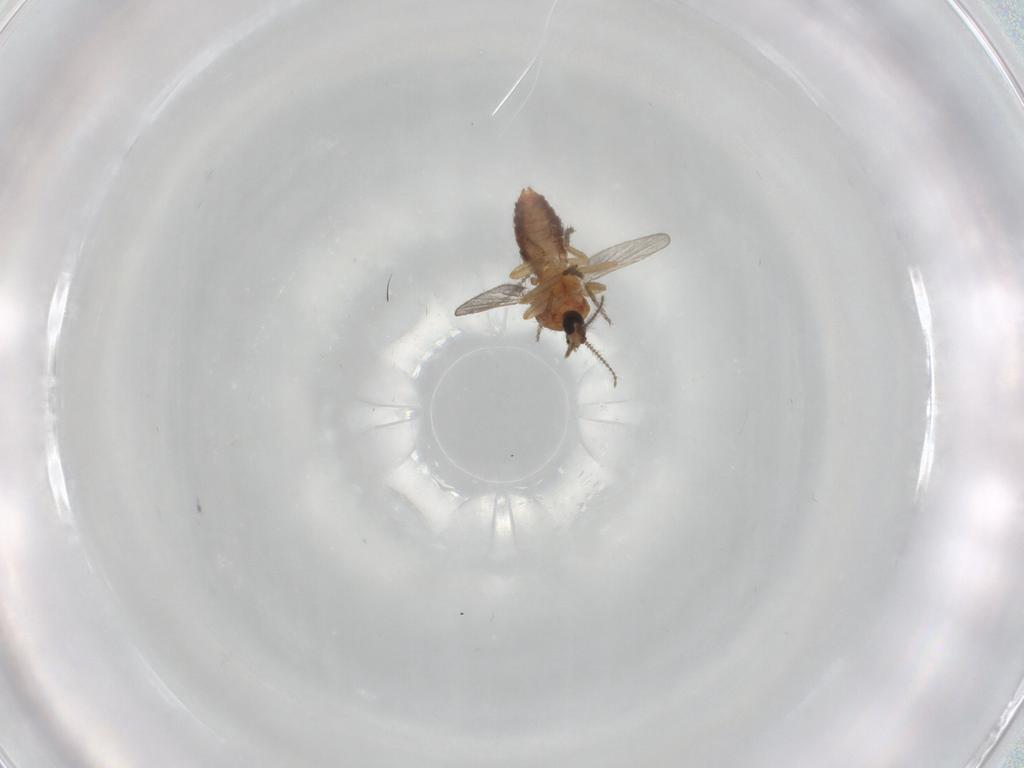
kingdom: Animalia
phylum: Arthropoda
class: Insecta
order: Diptera
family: Ceratopogonidae
